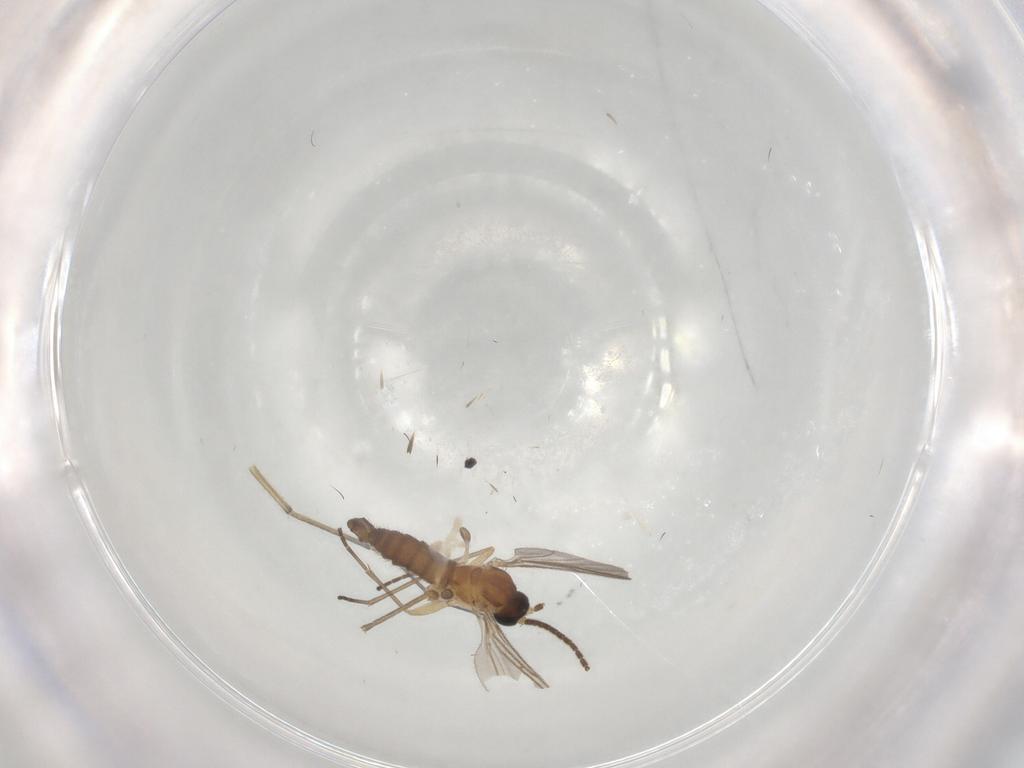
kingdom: Animalia
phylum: Arthropoda
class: Insecta
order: Diptera
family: Sciaridae
